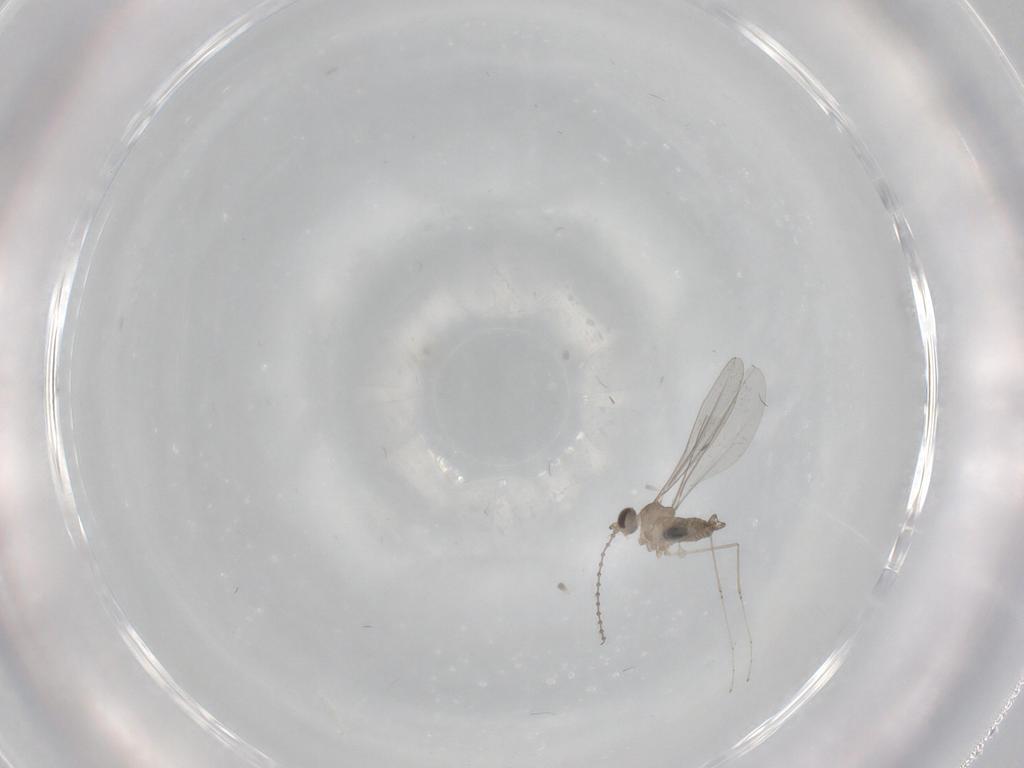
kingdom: Animalia
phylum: Arthropoda
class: Insecta
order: Diptera
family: Cecidomyiidae
